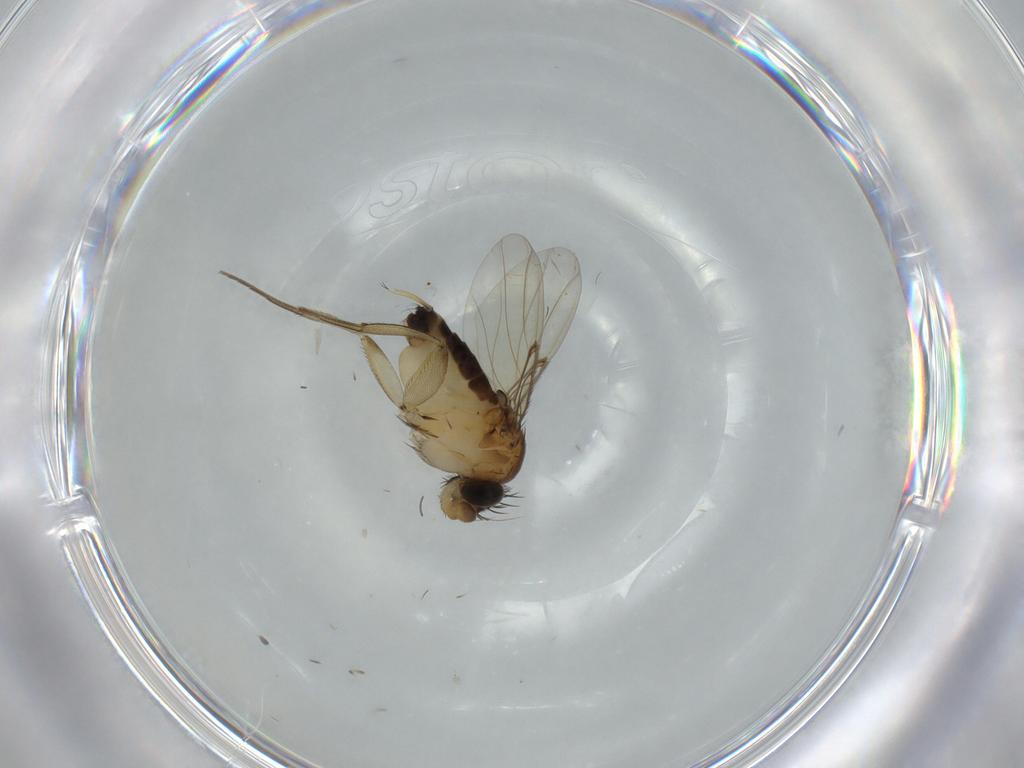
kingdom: Animalia
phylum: Arthropoda
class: Insecta
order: Diptera
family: Phoridae
